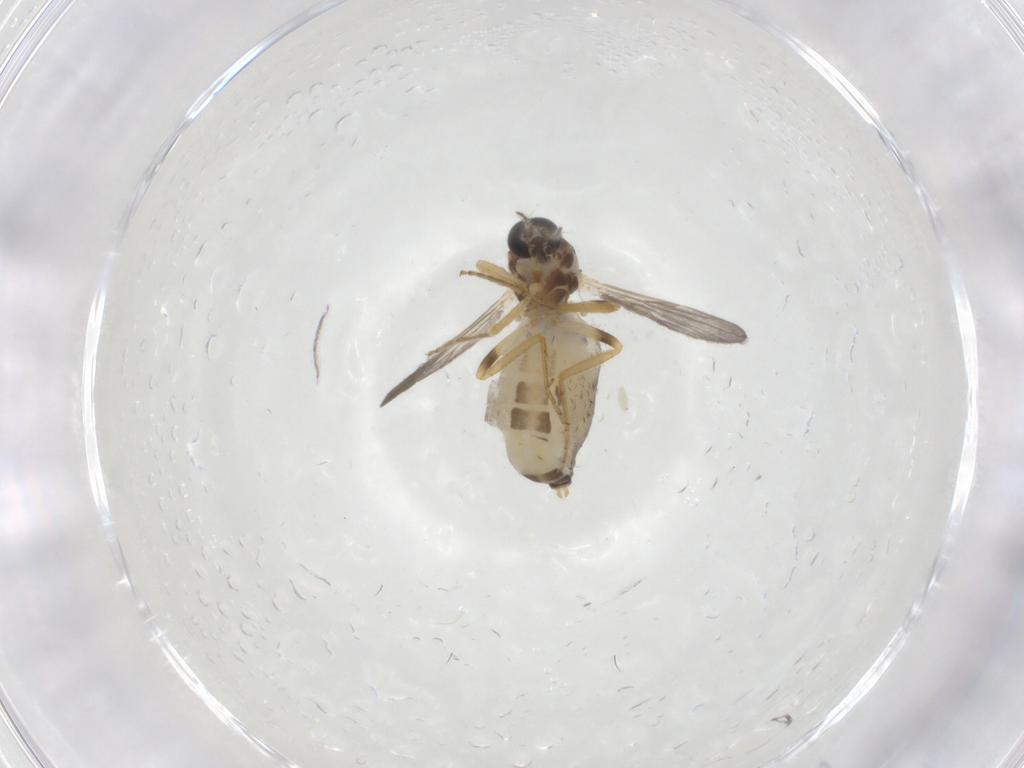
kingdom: Animalia
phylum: Arthropoda
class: Insecta
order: Diptera
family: Ceratopogonidae
